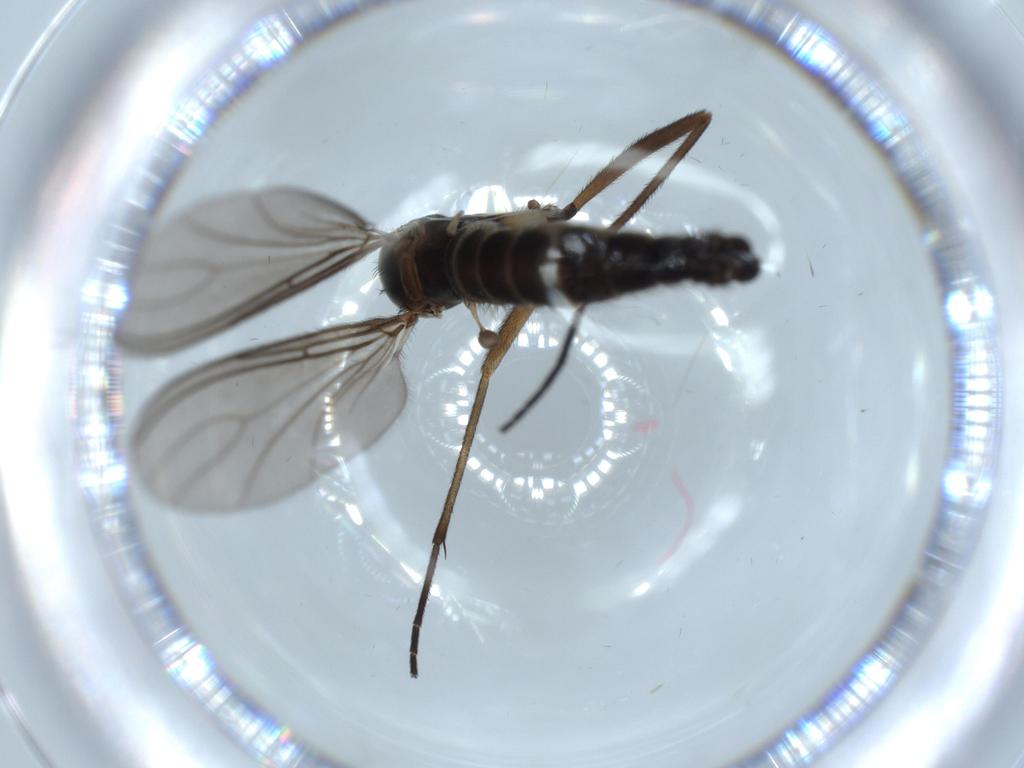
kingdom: Animalia
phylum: Arthropoda
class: Insecta
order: Diptera
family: Sciaridae
